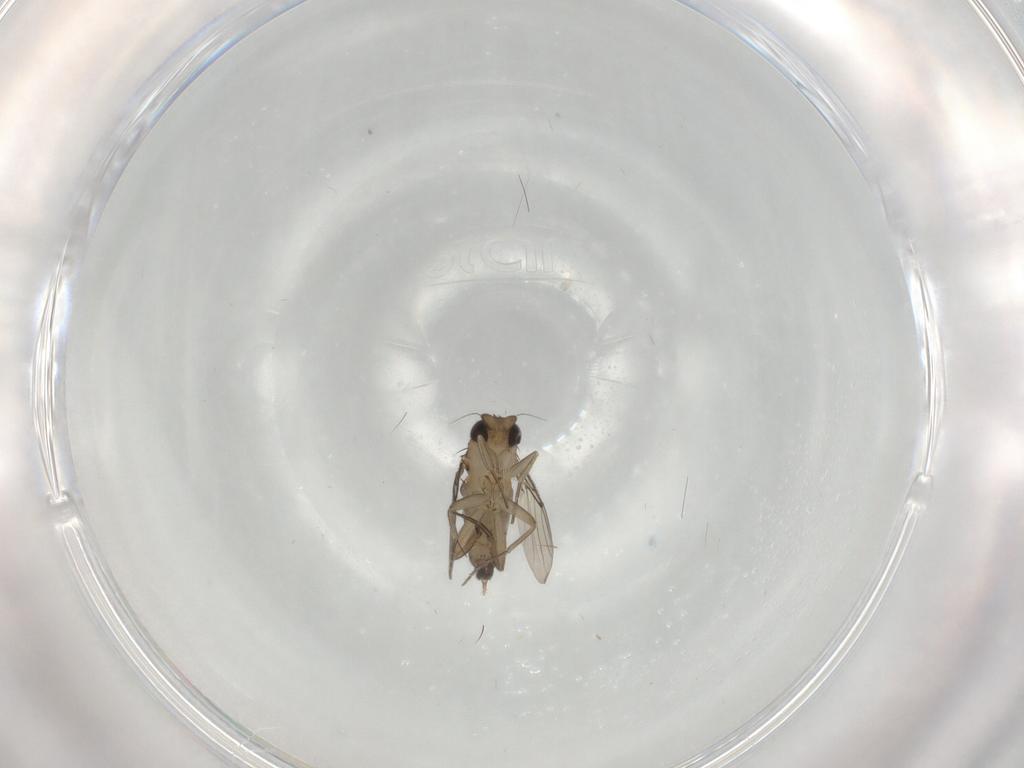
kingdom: Animalia
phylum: Arthropoda
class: Insecta
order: Diptera
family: Phoridae
